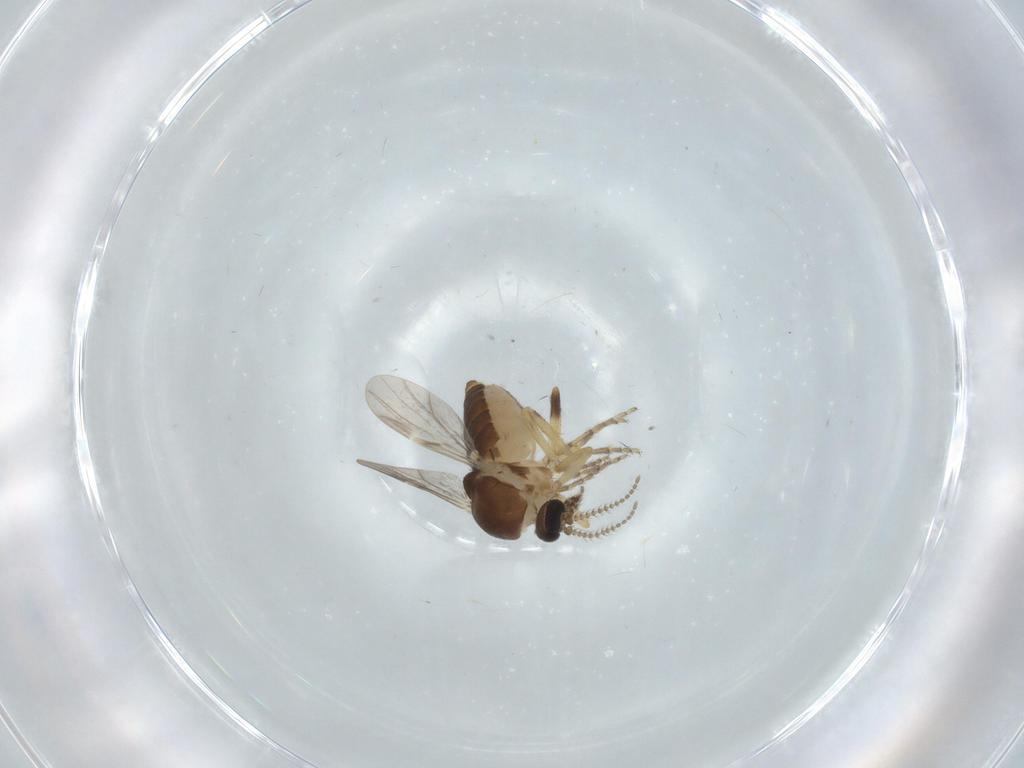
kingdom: Animalia
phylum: Arthropoda
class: Insecta
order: Diptera
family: Ceratopogonidae
